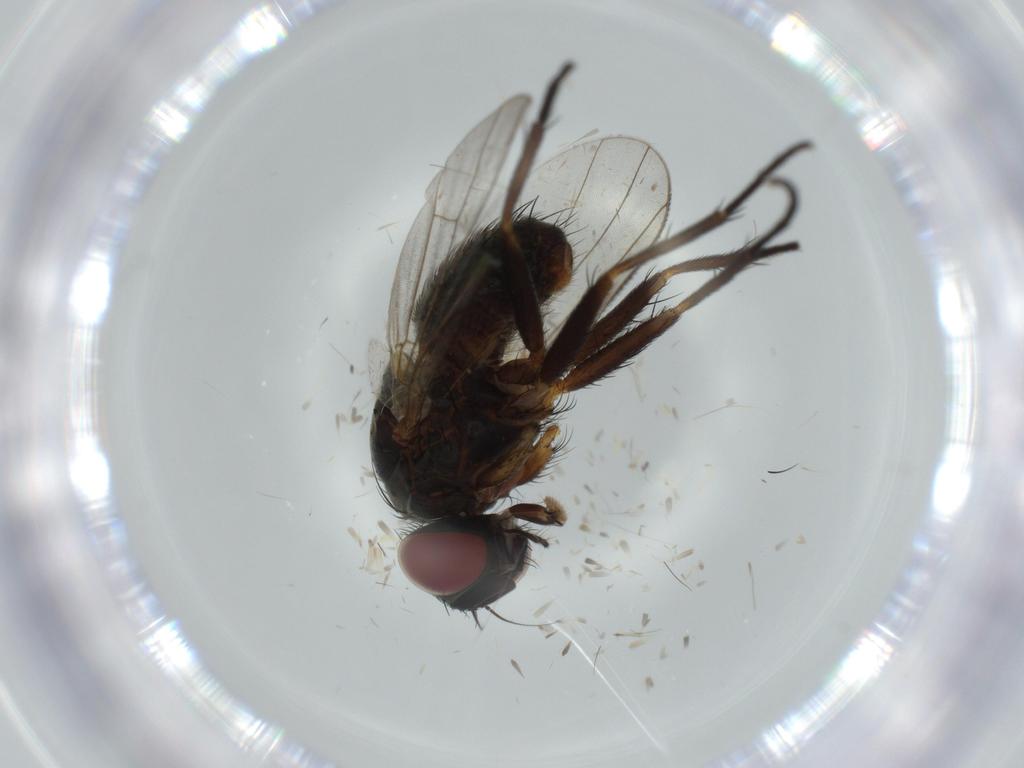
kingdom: Animalia
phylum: Arthropoda
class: Insecta
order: Diptera
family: Muscidae
